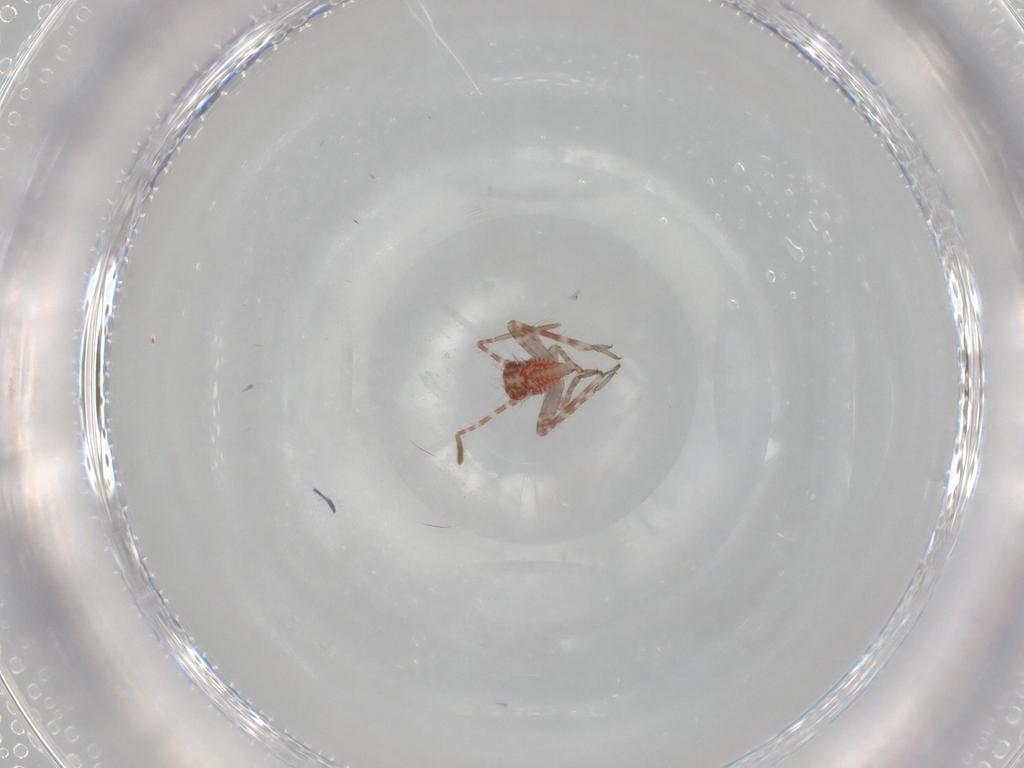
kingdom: Animalia
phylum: Arthropoda
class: Insecta
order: Hemiptera
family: Miridae
